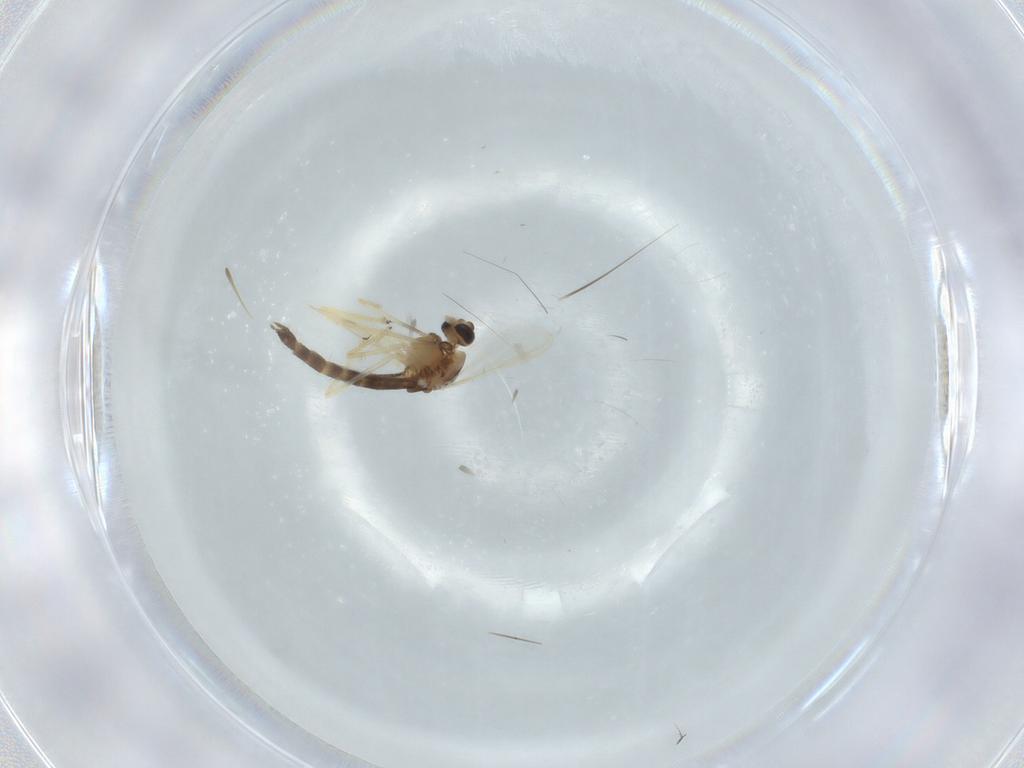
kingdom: Animalia
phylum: Arthropoda
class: Insecta
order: Diptera
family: Chironomidae
